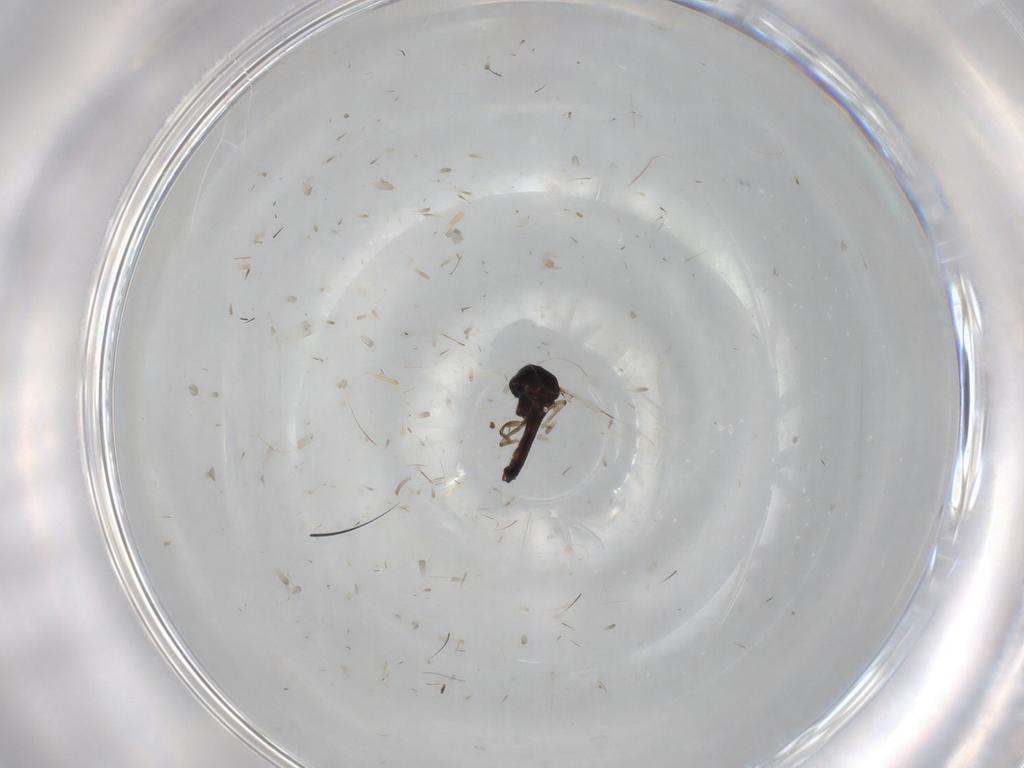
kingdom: Animalia
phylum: Arthropoda
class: Insecta
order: Diptera
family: Ceratopogonidae
